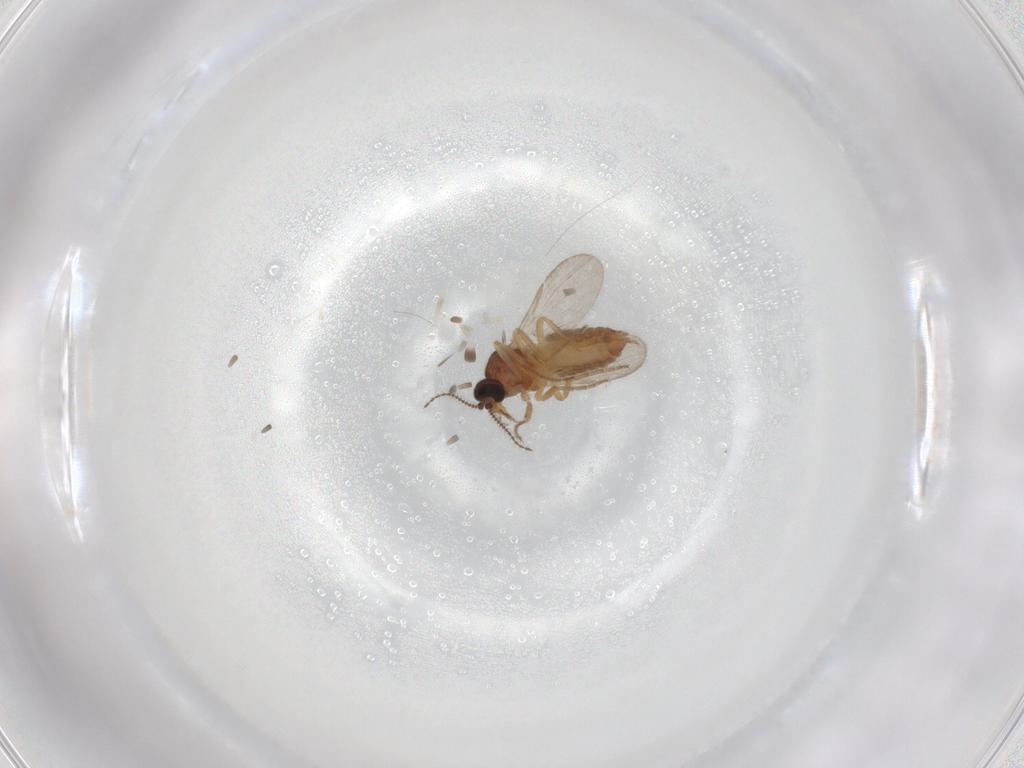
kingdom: Animalia
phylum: Arthropoda
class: Insecta
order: Diptera
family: Ceratopogonidae
